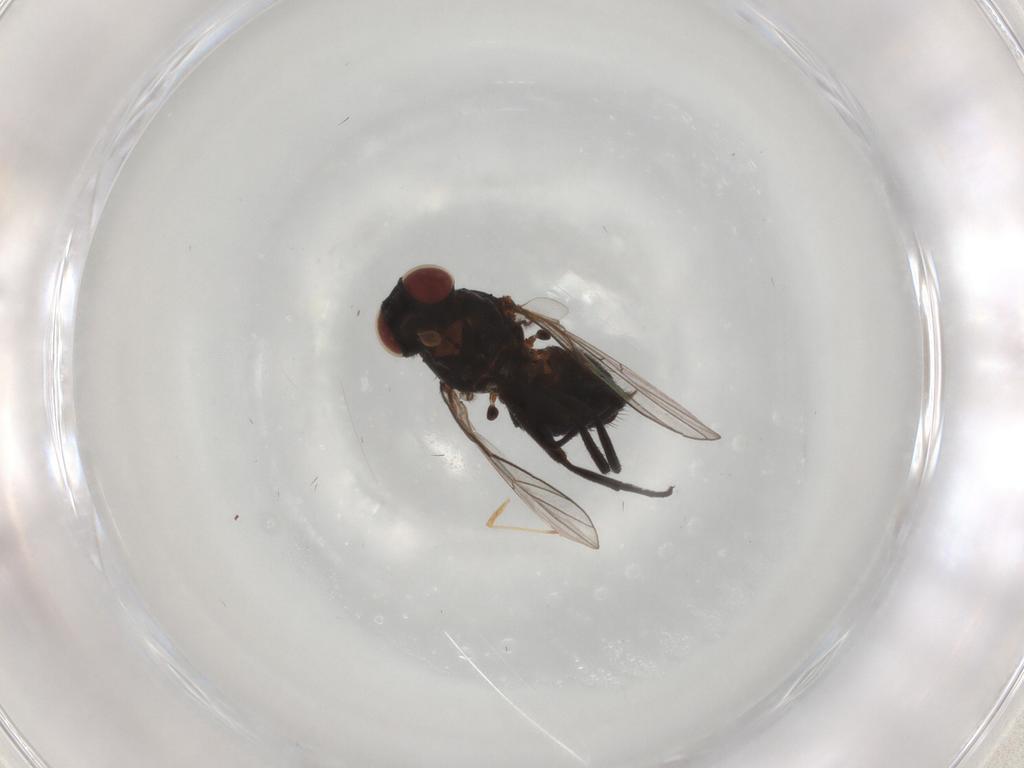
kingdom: Animalia
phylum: Arthropoda
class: Insecta
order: Diptera
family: Agromyzidae
